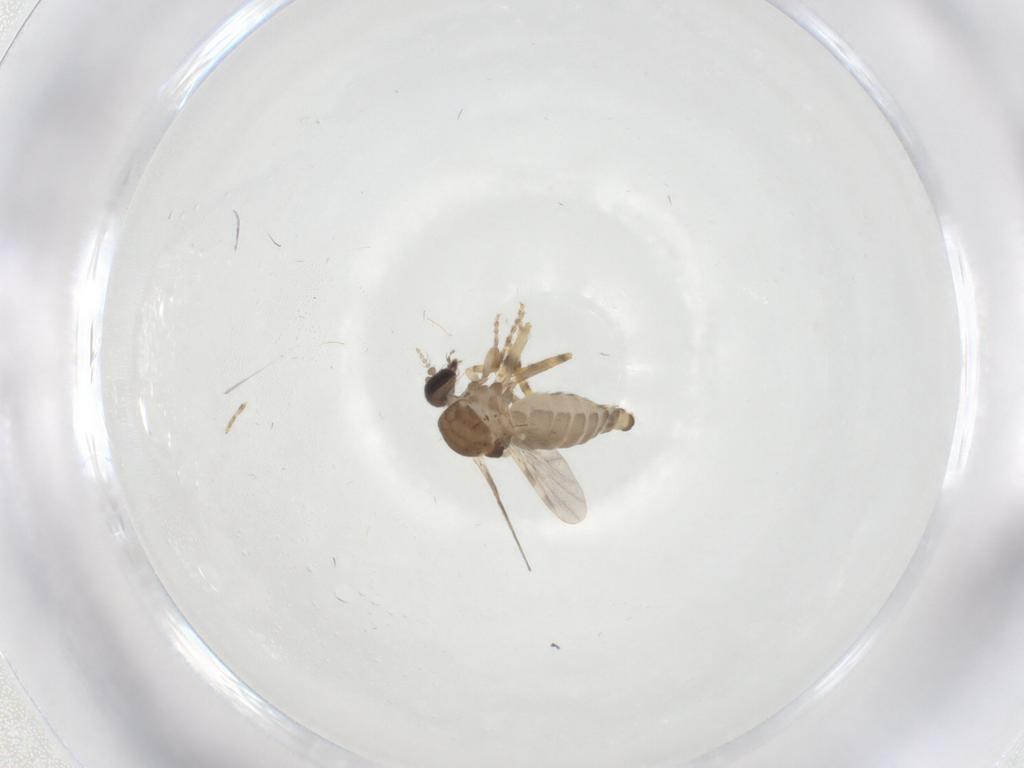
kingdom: Animalia
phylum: Arthropoda
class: Insecta
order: Diptera
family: Ceratopogonidae
